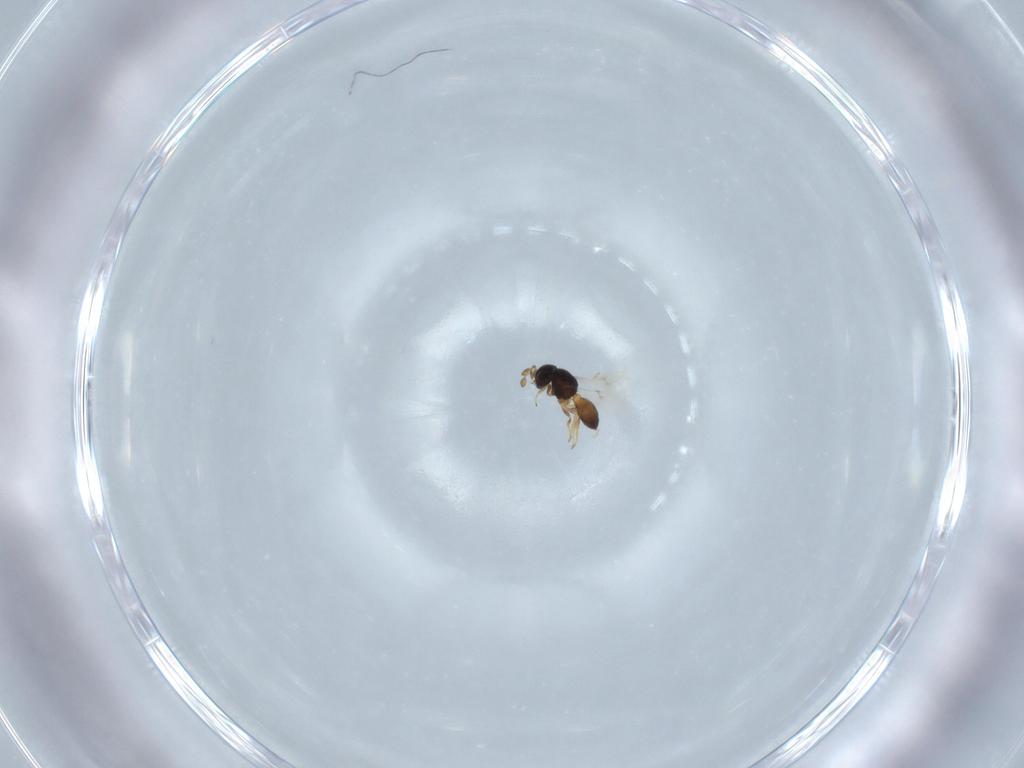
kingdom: Animalia
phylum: Arthropoda
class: Insecta
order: Hymenoptera
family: Scelionidae
